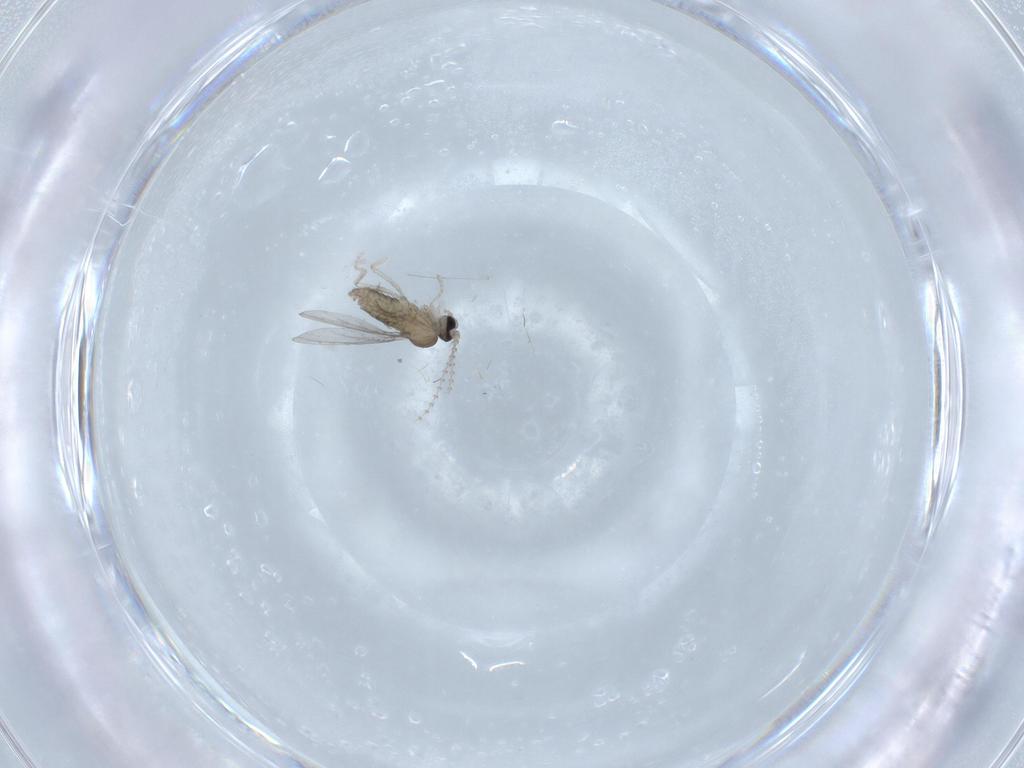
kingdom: Animalia
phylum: Arthropoda
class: Insecta
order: Diptera
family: Cecidomyiidae
